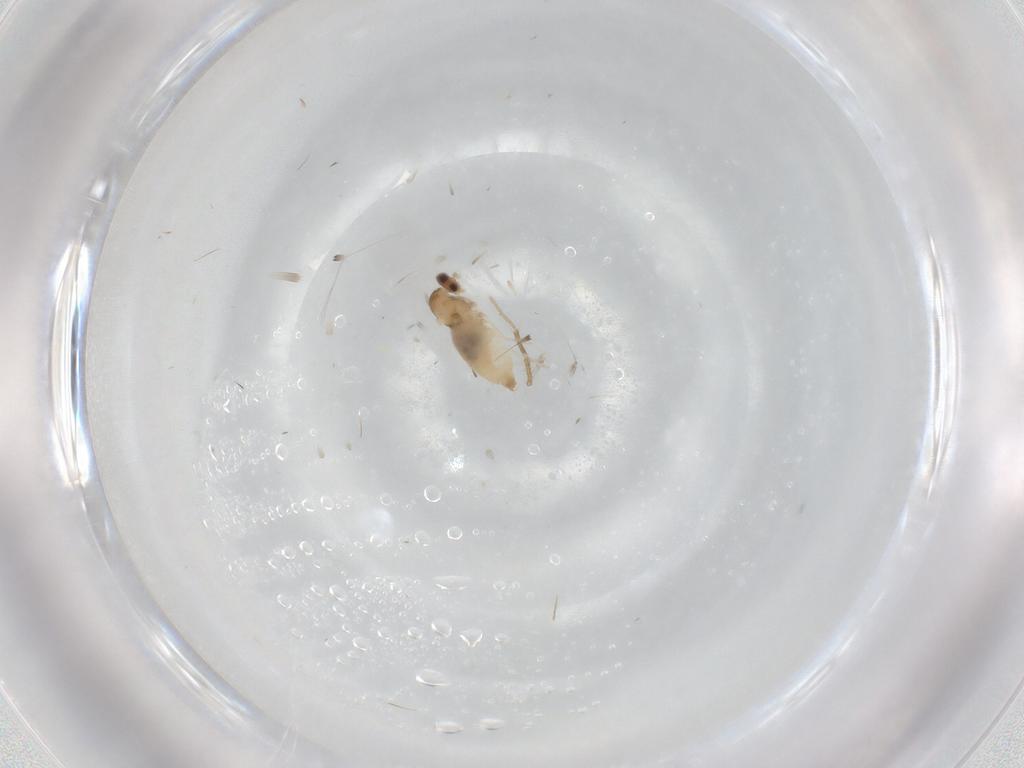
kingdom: Animalia
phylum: Arthropoda
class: Insecta
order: Diptera
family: Cecidomyiidae
